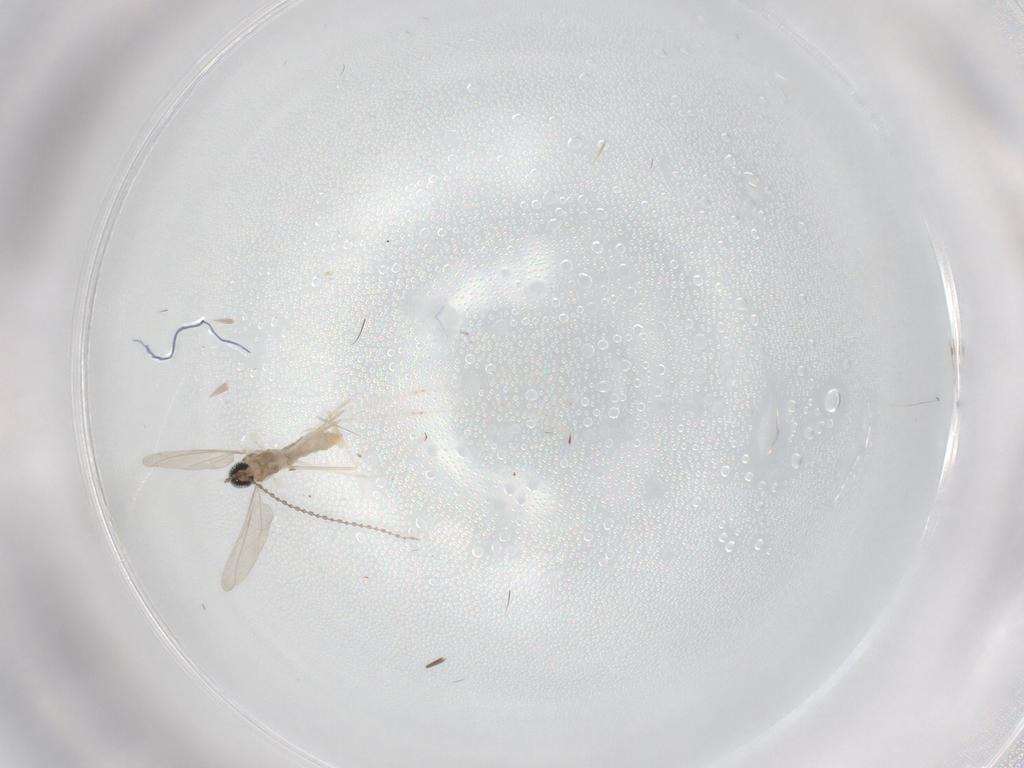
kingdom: Animalia
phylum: Arthropoda
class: Insecta
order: Diptera
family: Cecidomyiidae
